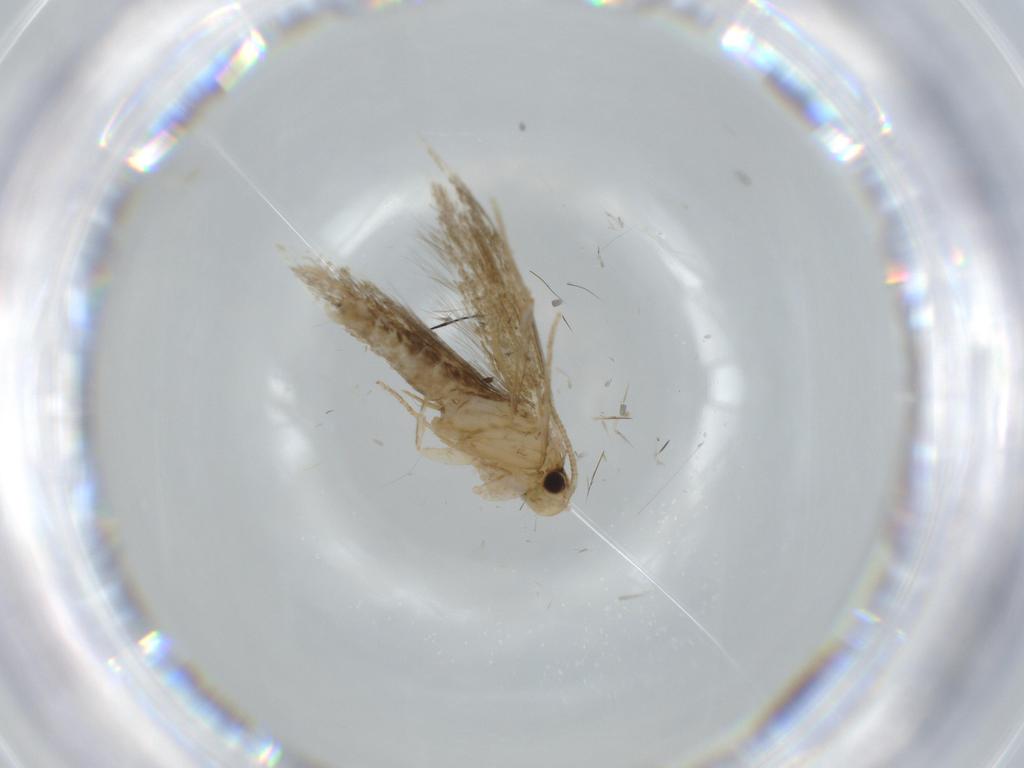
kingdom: Animalia
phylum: Arthropoda
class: Insecta
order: Lepidoptera
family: Tineidae
